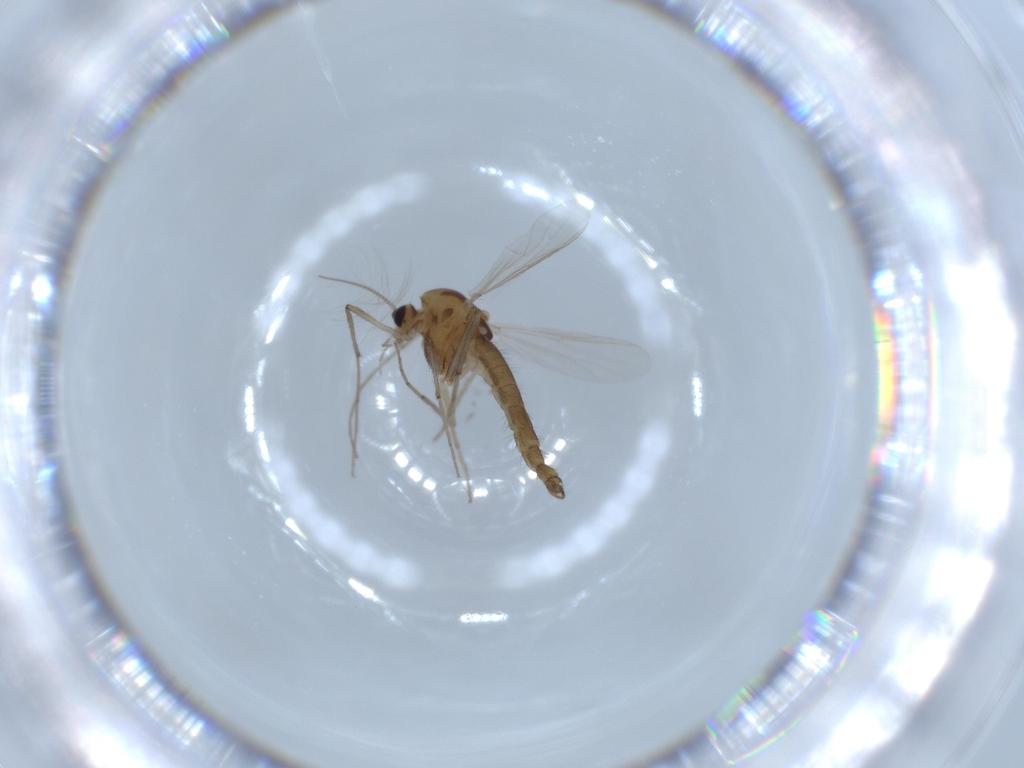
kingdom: Animalia
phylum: Arthropoda
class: Insecta
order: Diptera
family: Chironomidae
